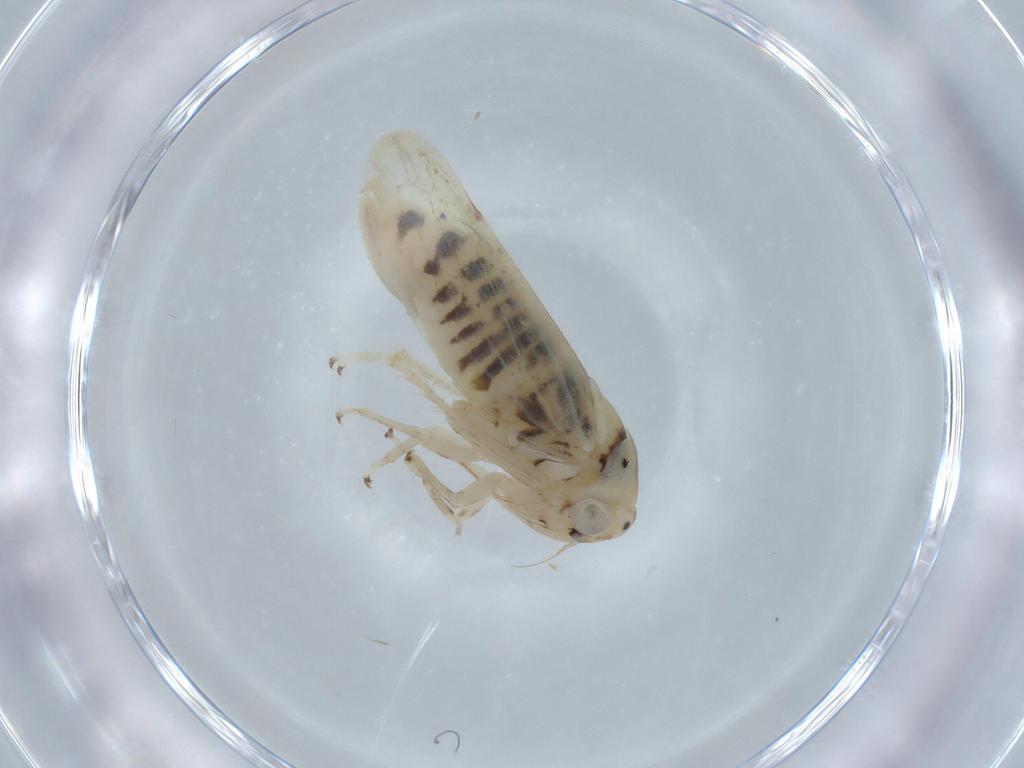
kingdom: Animalia
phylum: Arthropoda
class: Insecta
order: Hemiptera
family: Cicadellidae
